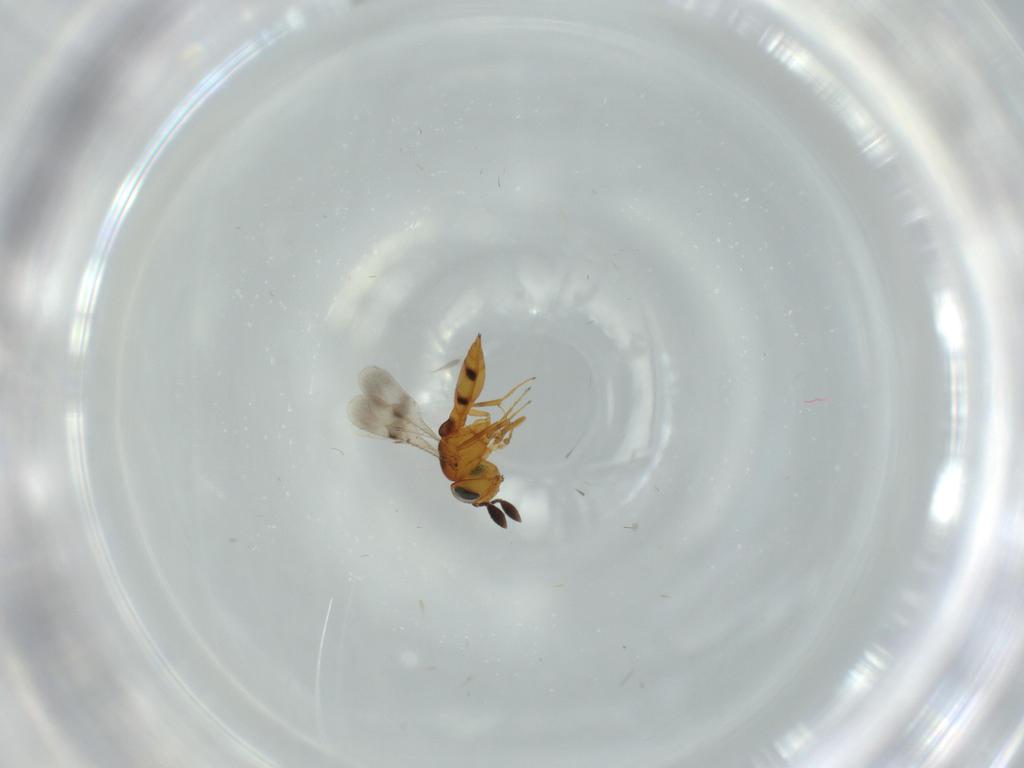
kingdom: Animalia
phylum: Arthropoda
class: Insecta
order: Hymenoptera
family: Scelionidae
